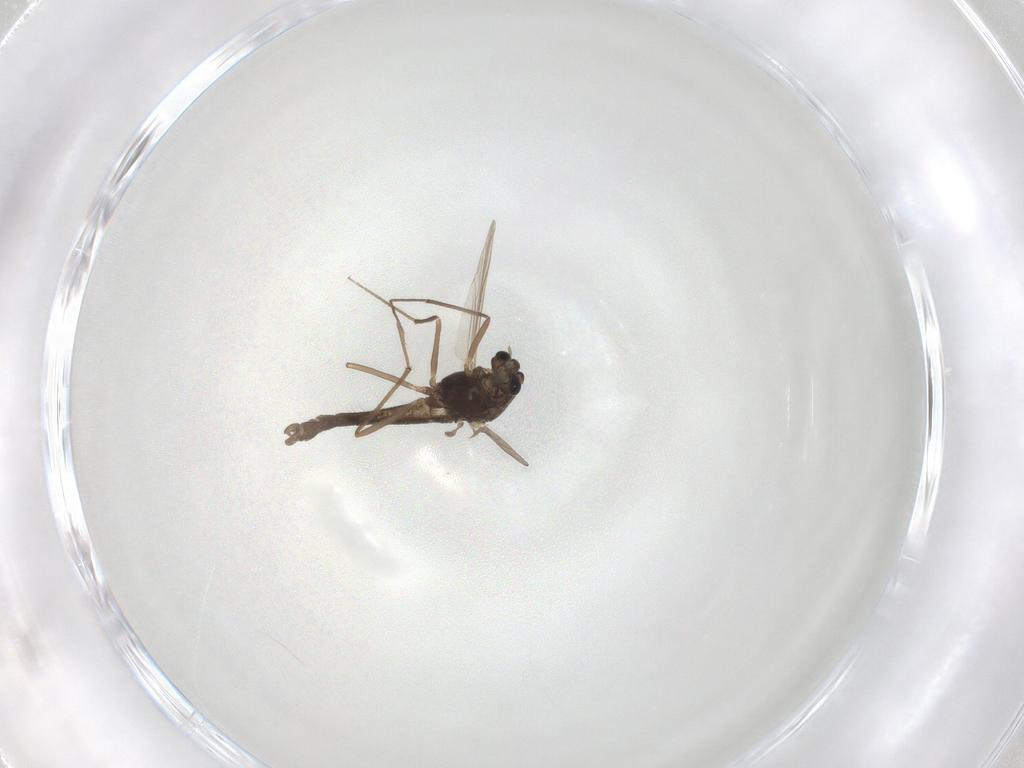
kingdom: Animalia
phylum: Arthropoda
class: Insecta
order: Diptera
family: Chironomidae
